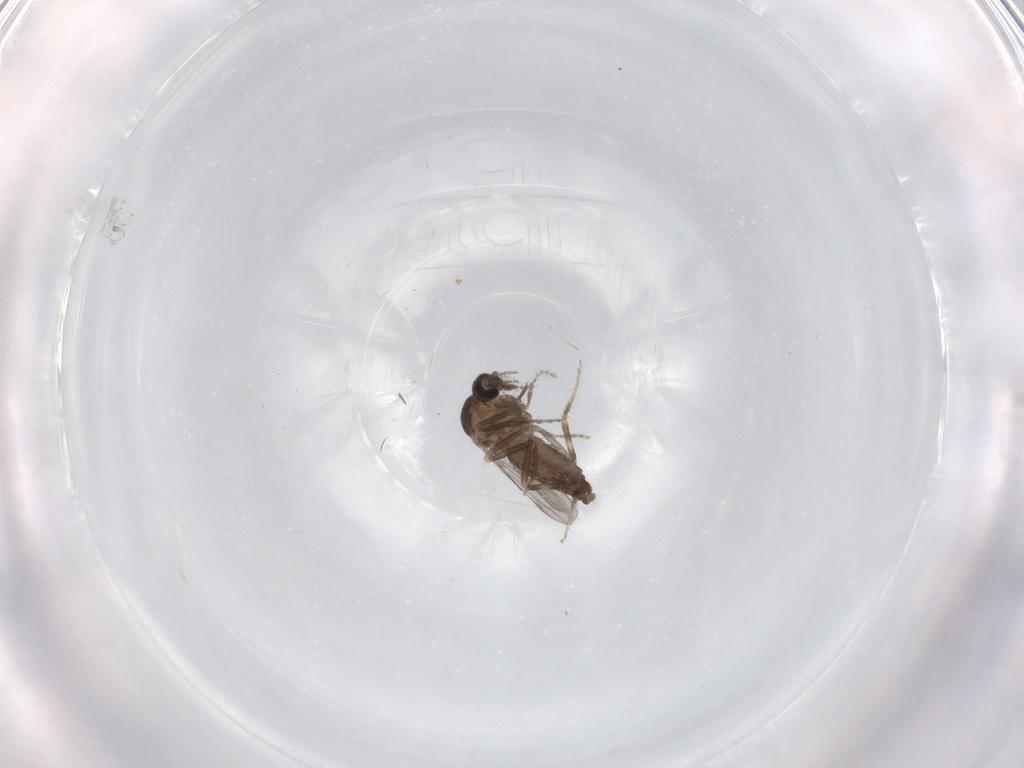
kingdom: Animalia
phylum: Arthropoda
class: Insecta
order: Diptera
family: Ceratopogonidae
